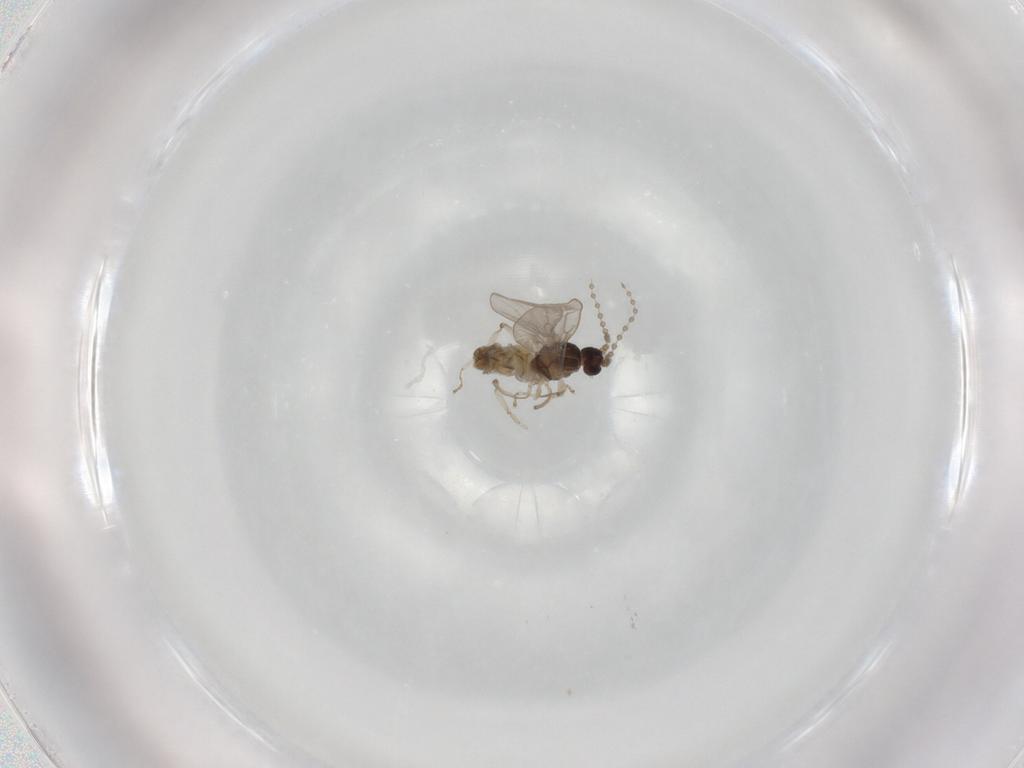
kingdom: Animalia
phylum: Arthropoda
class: Insecta
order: Diptera
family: Cecidomyiidae
